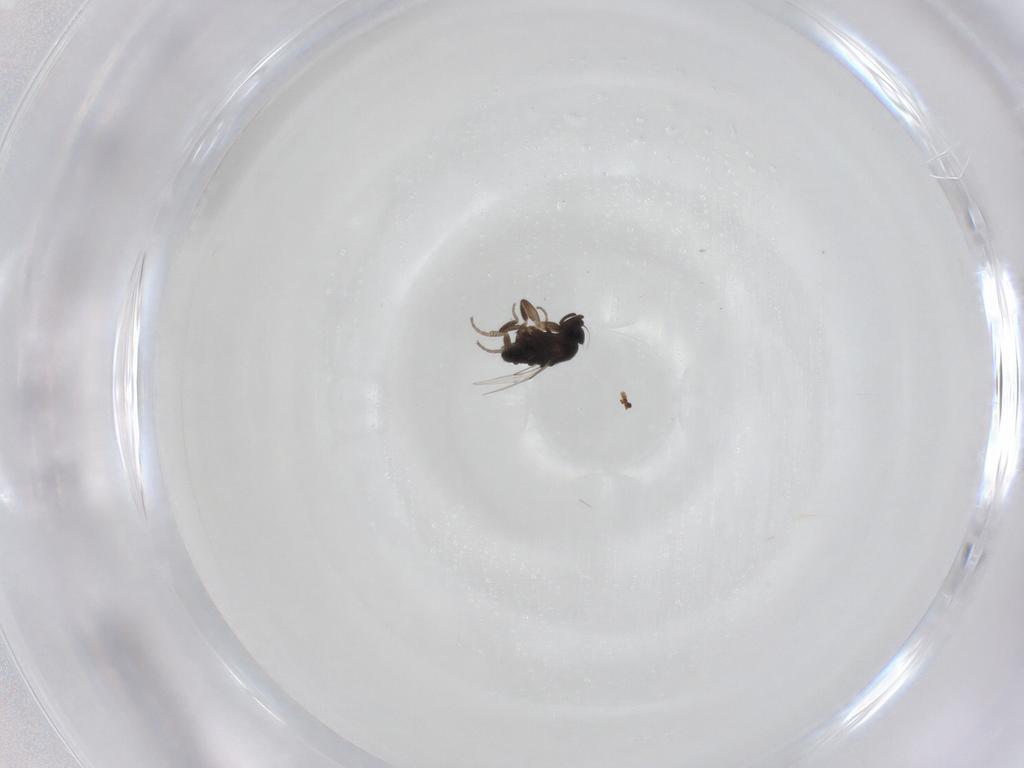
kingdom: Animalia
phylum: Arthropoda
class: Insecta
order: Diptera
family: Phoridae
